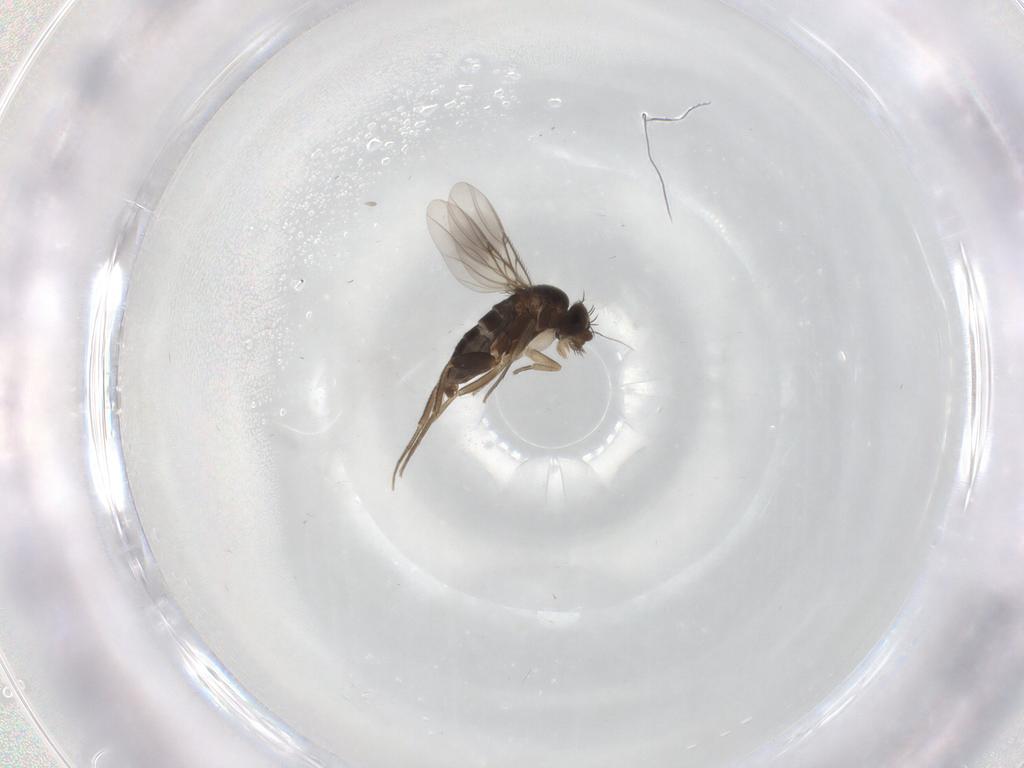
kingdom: Animalia
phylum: Arthropoda
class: Insecta
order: Diptera
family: Phoridae
